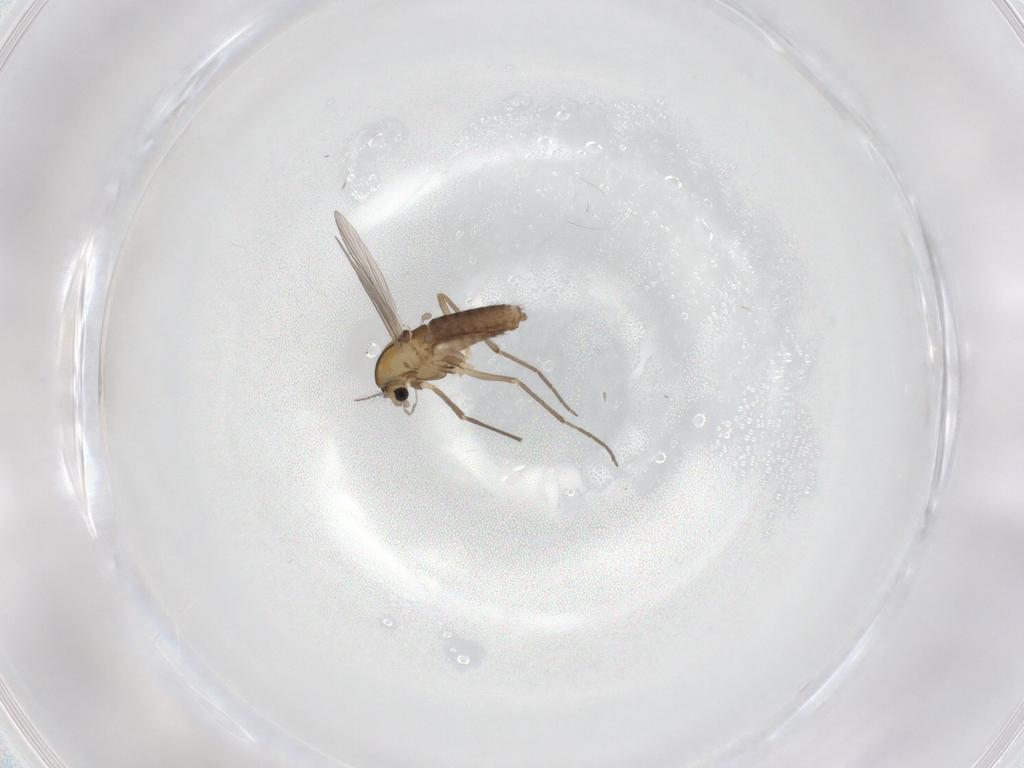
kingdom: Animalia
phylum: Arthropoda
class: Insecta
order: Diptera
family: Chironomidae
